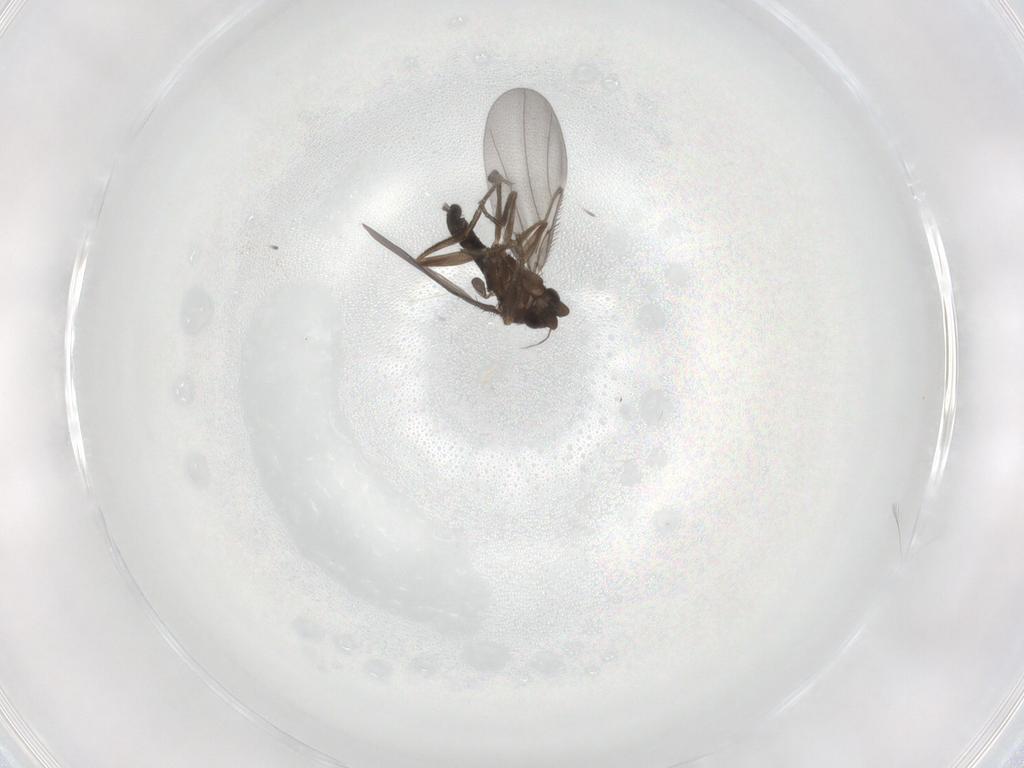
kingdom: Animalia
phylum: Arthropoda
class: Insecta
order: Diptera
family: Phoridae
